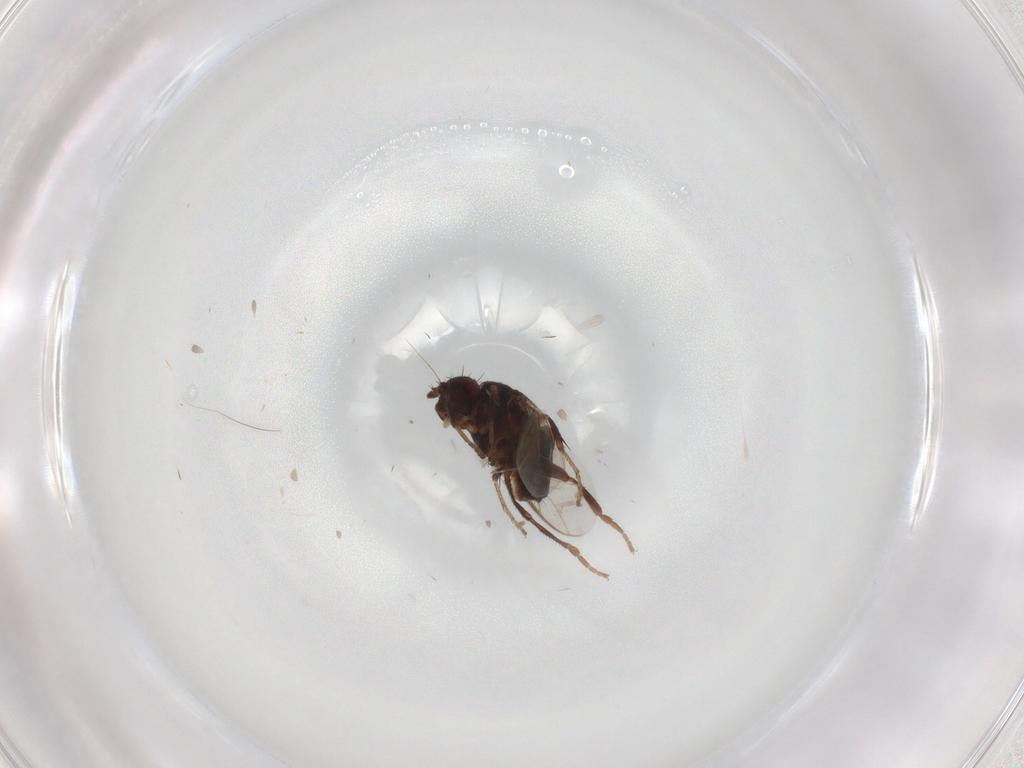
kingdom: Animalia
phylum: Arthropoda
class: Insecta
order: Diptera
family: Sphaeroceridae
